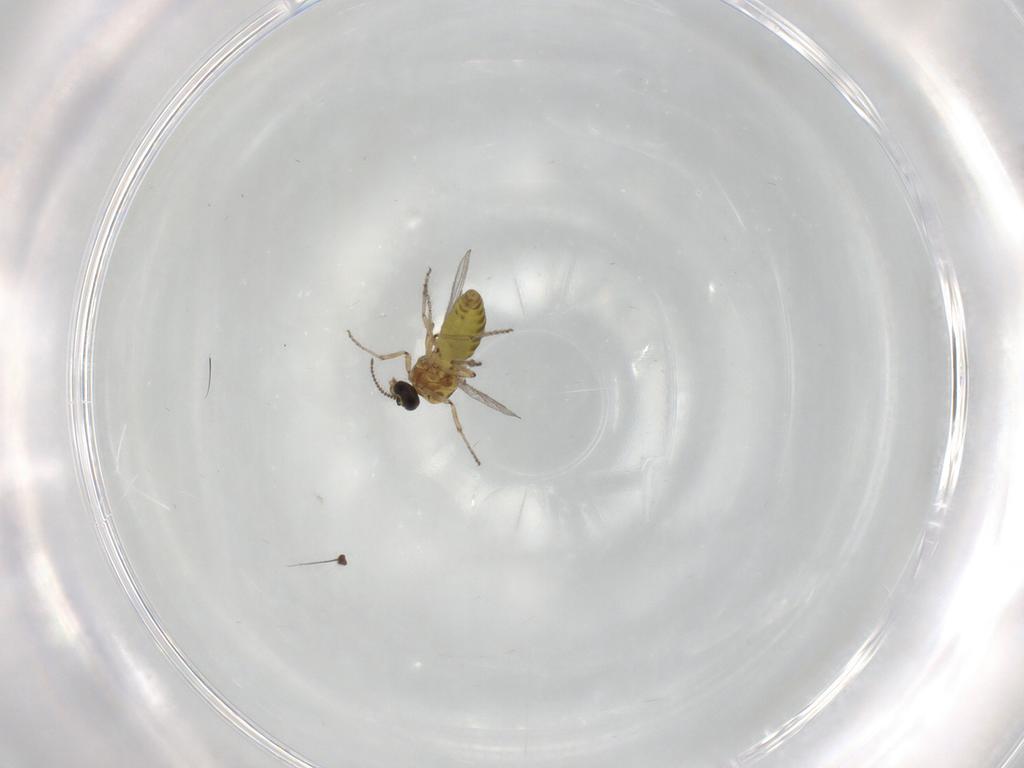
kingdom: Animalia
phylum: Arthropoda
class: Insecta
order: Diptera
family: Ceratopogonidae
